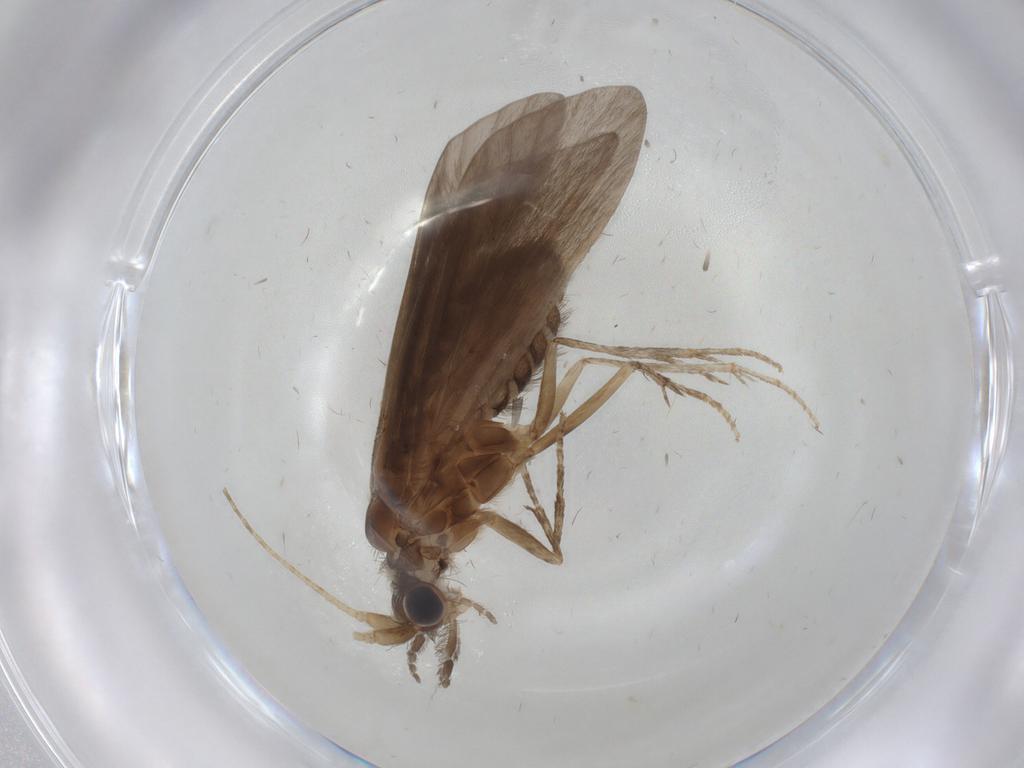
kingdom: Animalia
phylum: Arthropoda
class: Insecta
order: Trichoptera
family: Helicopsychidae
